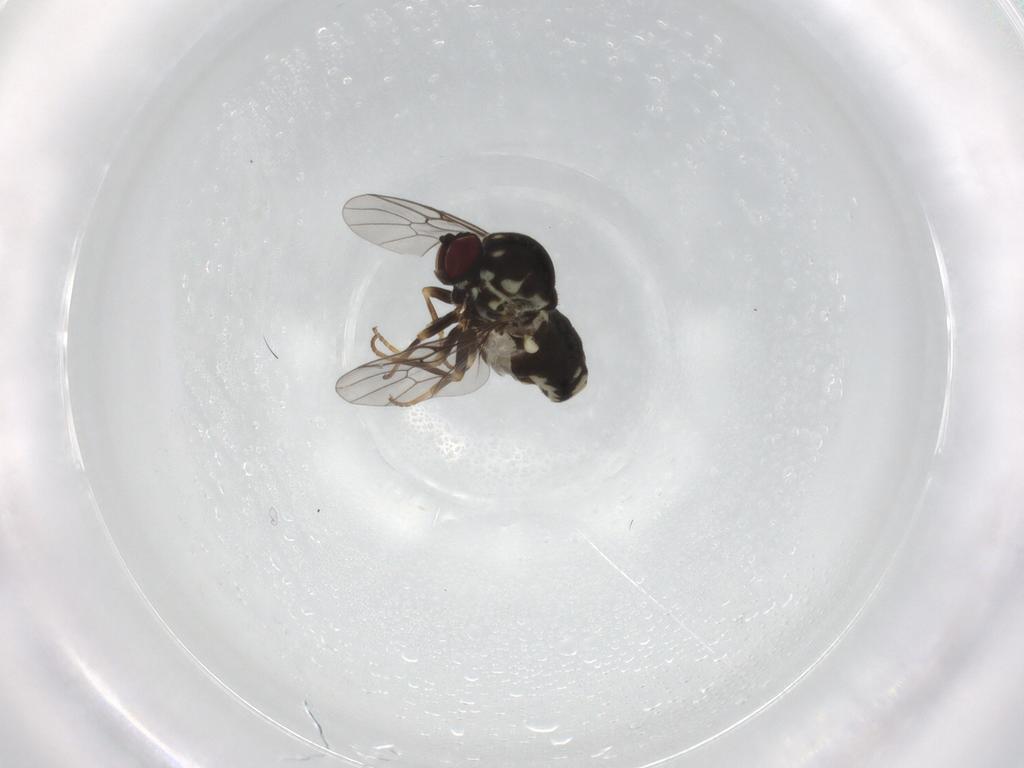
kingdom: Animalia
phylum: Arthropoda
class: Insecta
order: Diptera
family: Bombyliidae
